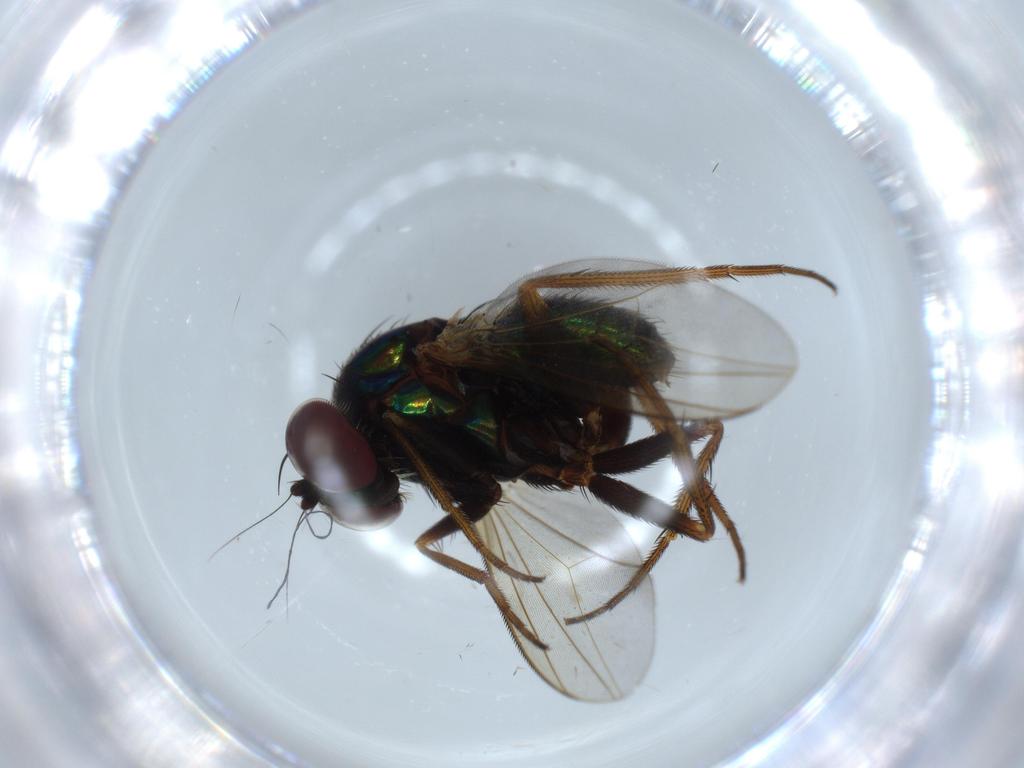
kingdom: Animalia
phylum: Arthropoda
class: Insecta
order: Diptera
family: Dolichopodidae
